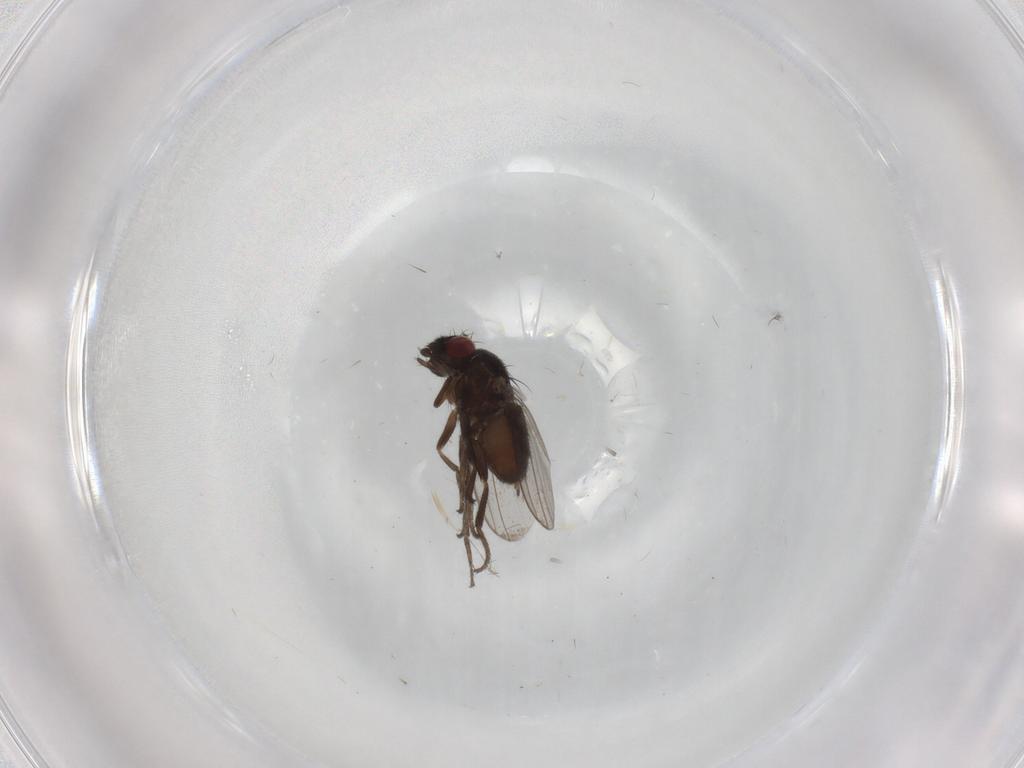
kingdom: Animalia
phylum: Arthropoda
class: Insecta
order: Diptera
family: Milichiidae
